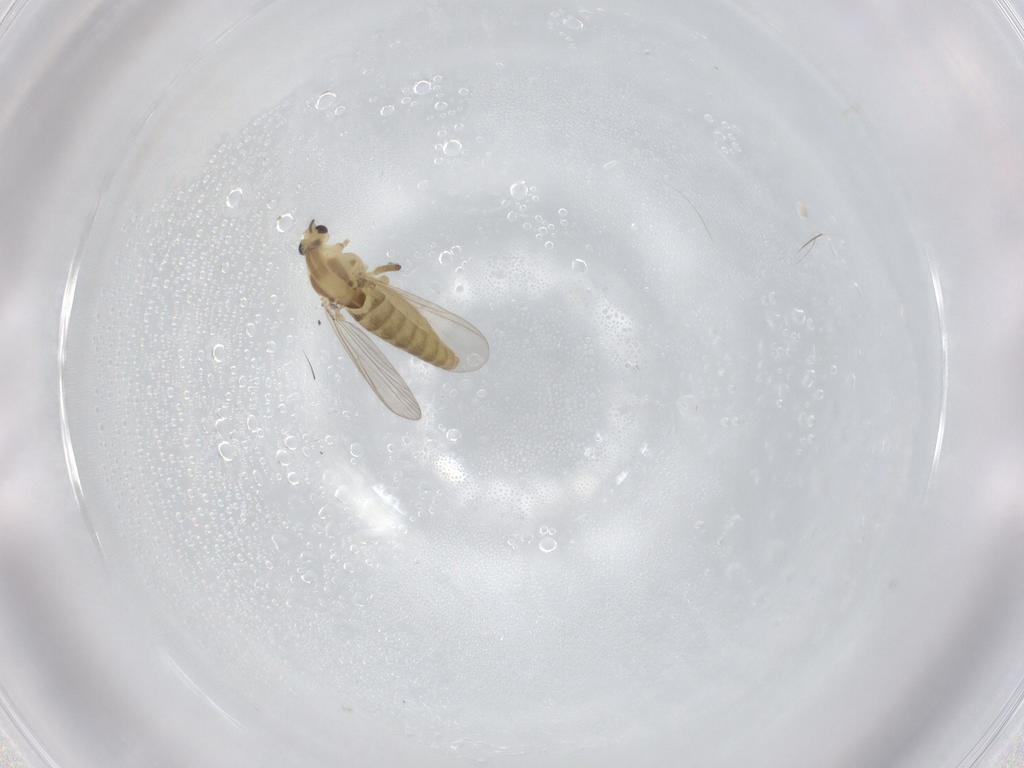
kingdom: Animalia
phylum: Arthropoda
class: Insecta
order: Diptera
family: Chironomidae
